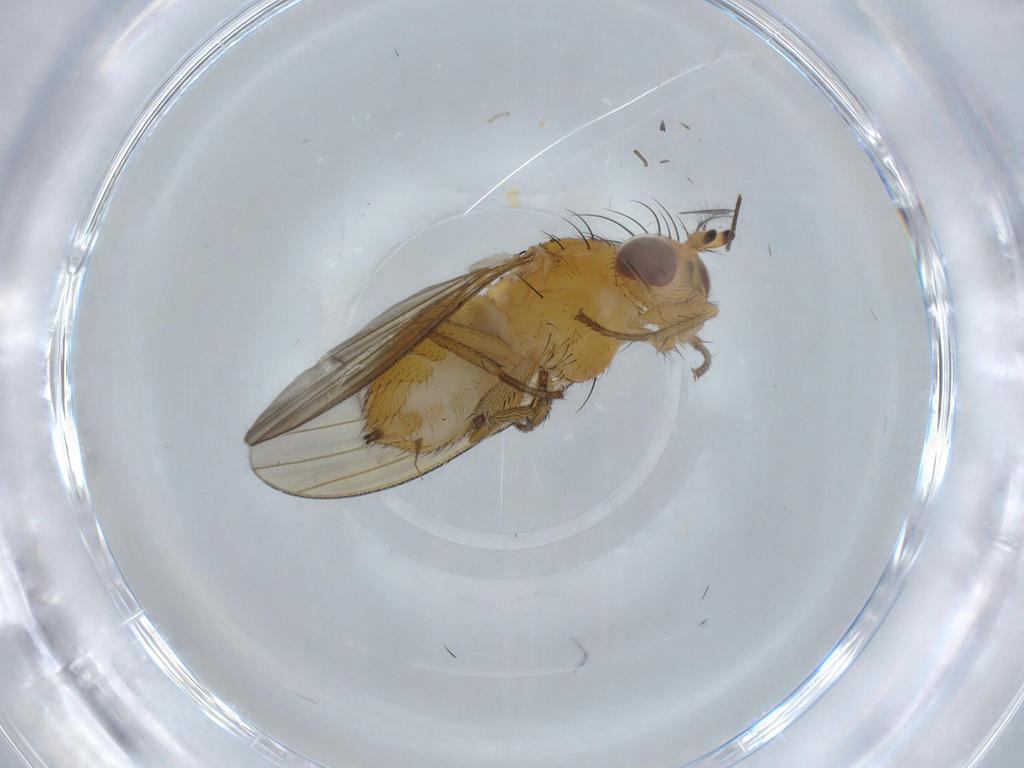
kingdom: Animalia
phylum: Arthropoda
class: Insecta
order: Diptera
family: Lauxaniidae
